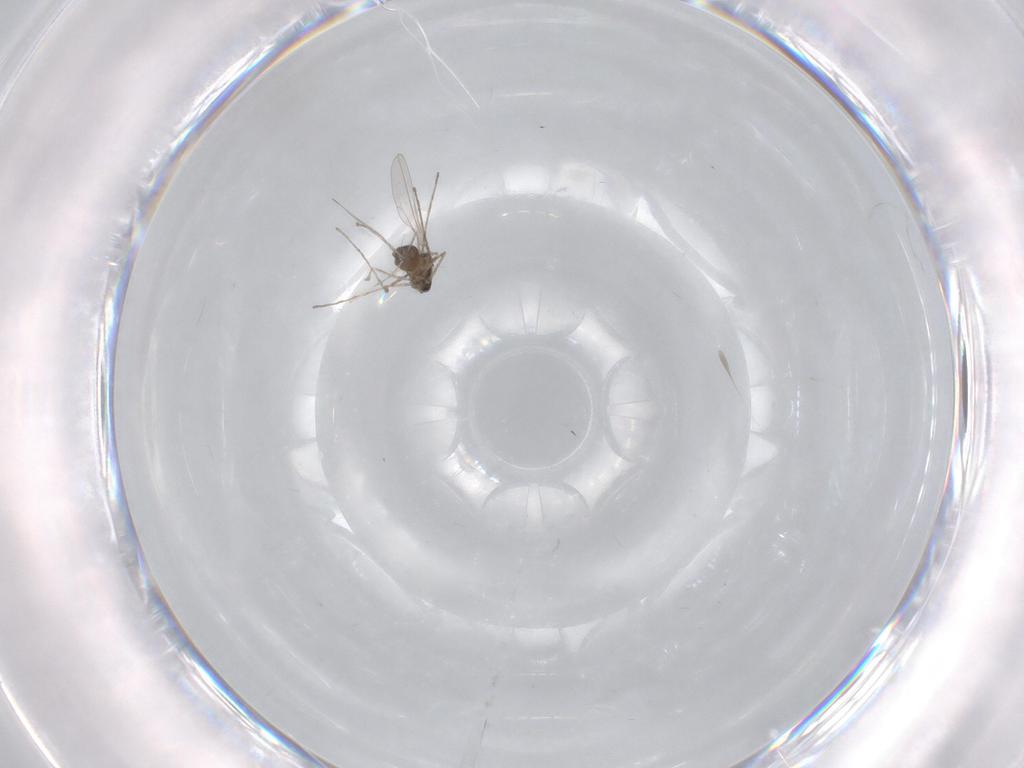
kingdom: Animalia
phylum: Arthropoda
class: Insecta
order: Diptera
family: Cecidomyiidae
